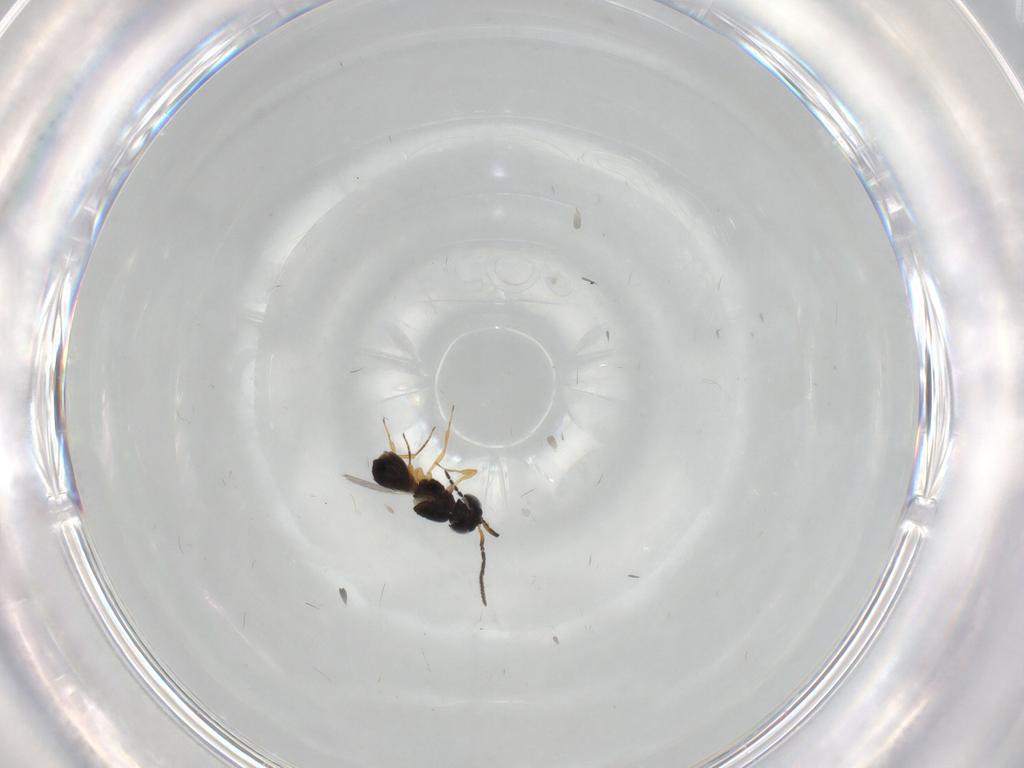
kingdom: Animalia
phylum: Arthropoda
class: Insecta
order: Hymenoptera
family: Scelionidae
